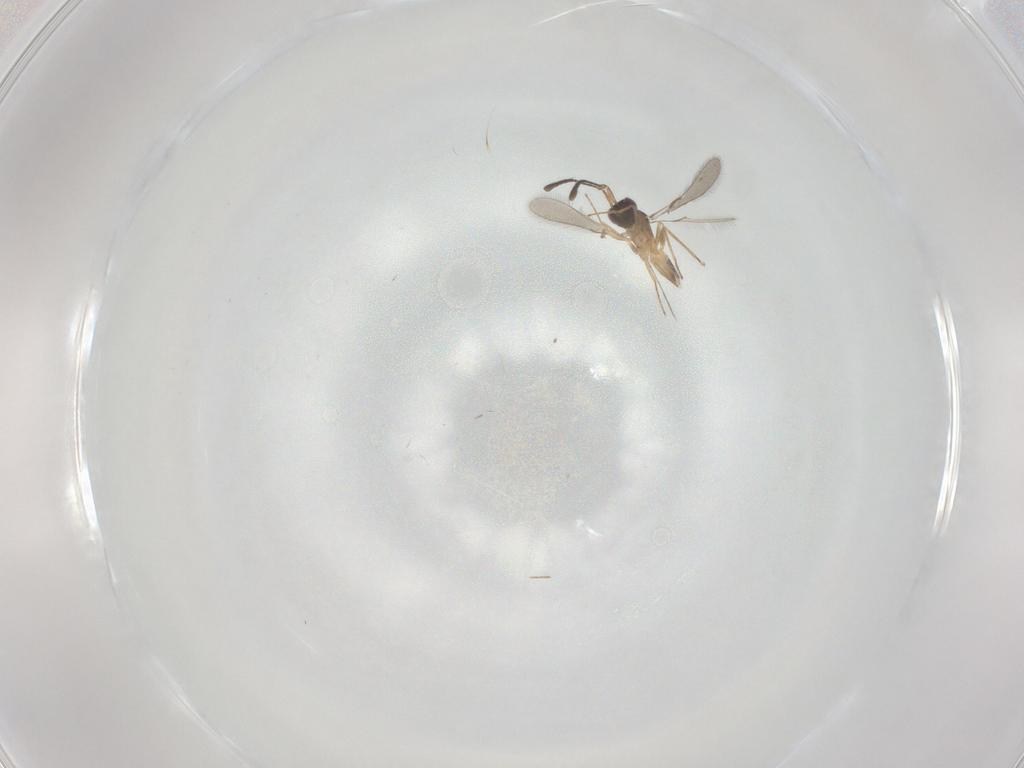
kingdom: Animalia
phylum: Arthropoda
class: Insecta
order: Hymenoptera
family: Mymaridae
